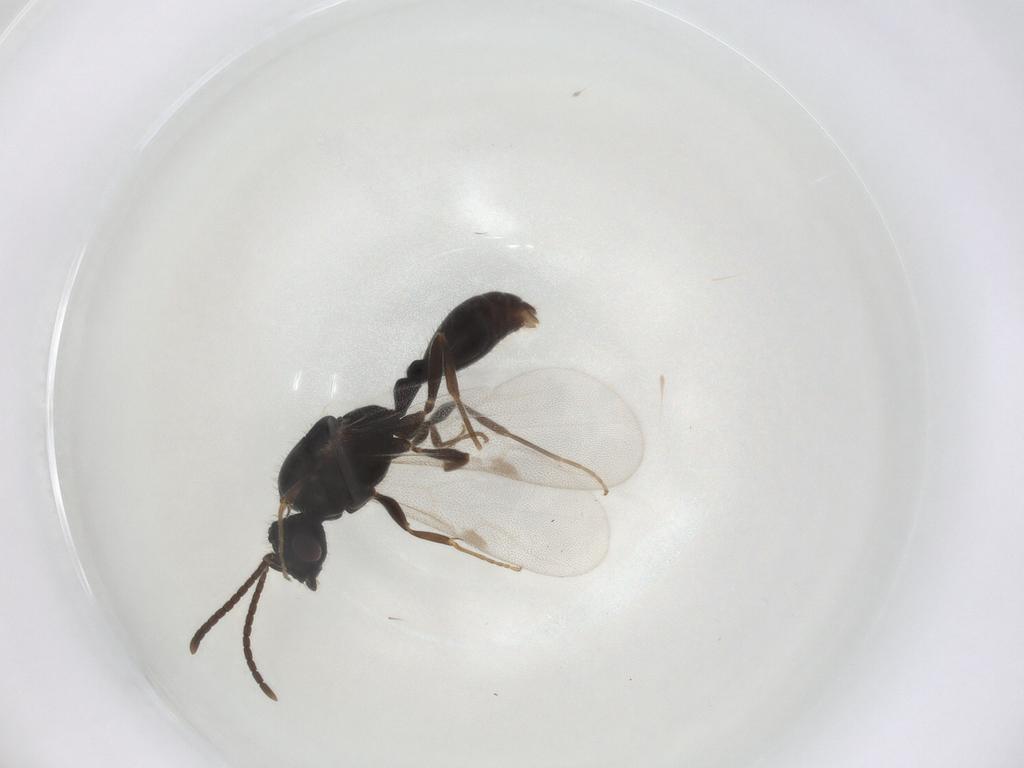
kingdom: Animalia
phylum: Arthropoda
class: Insecta
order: Hymenoptera
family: Formicidae
